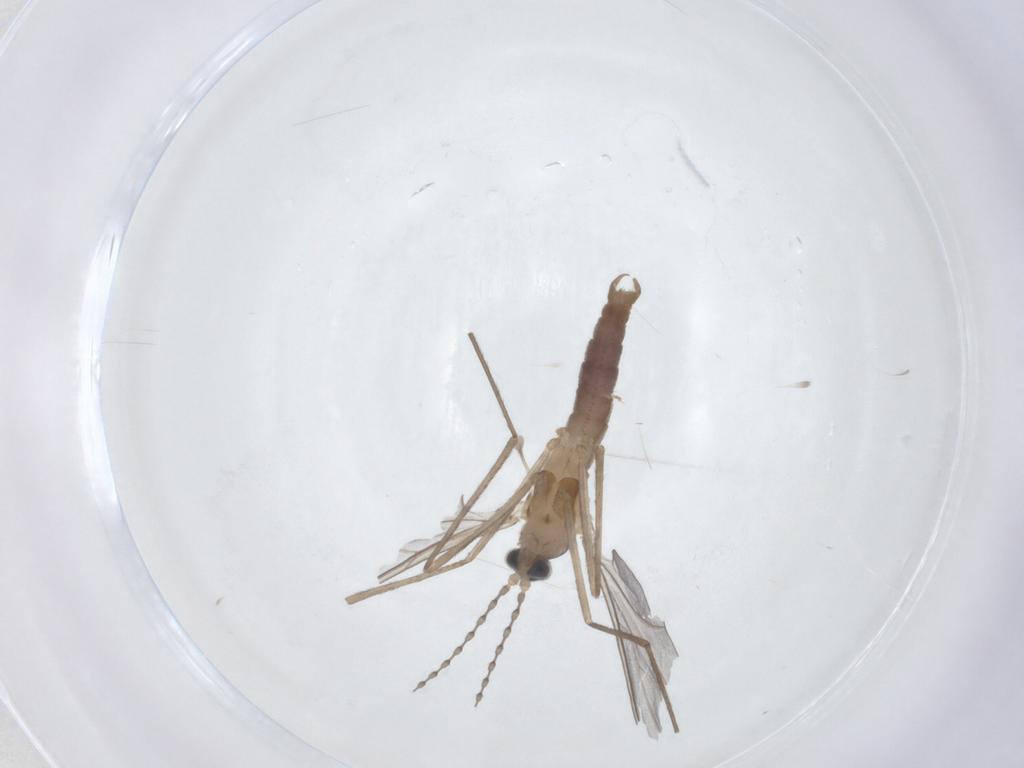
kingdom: Animalia
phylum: Arthropoda
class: Insecta
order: Diptera
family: Cecidomyiidae
